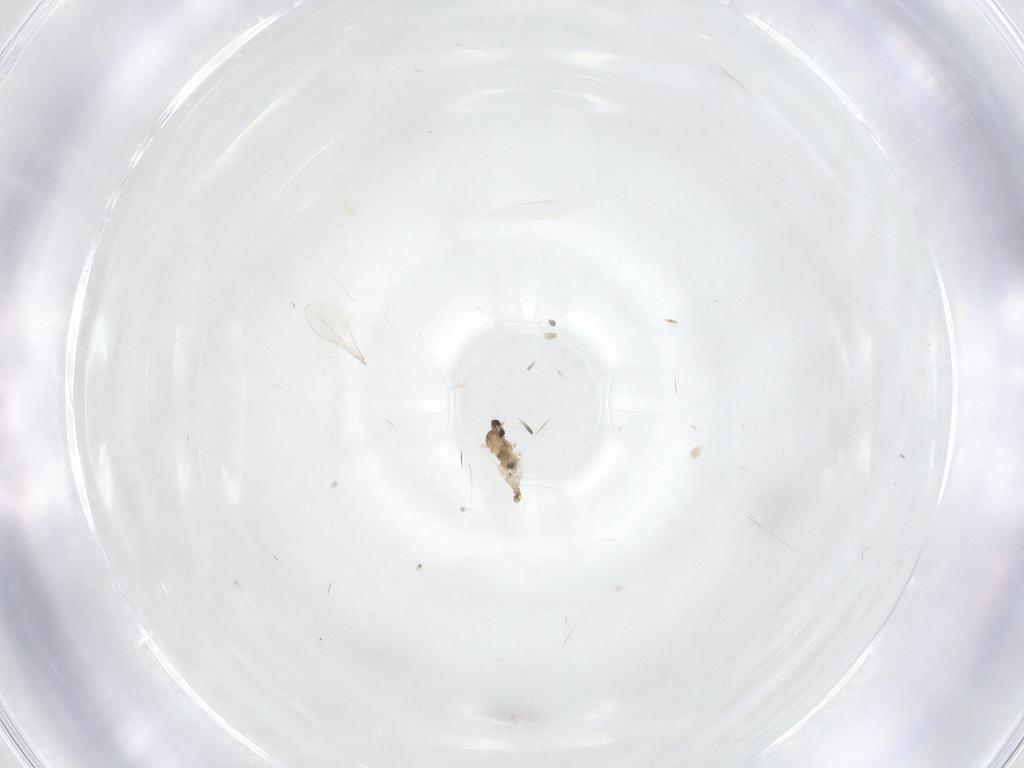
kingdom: Animalia
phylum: Arthropoda
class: Insecta
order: Diptera
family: Cecidomyiidae
